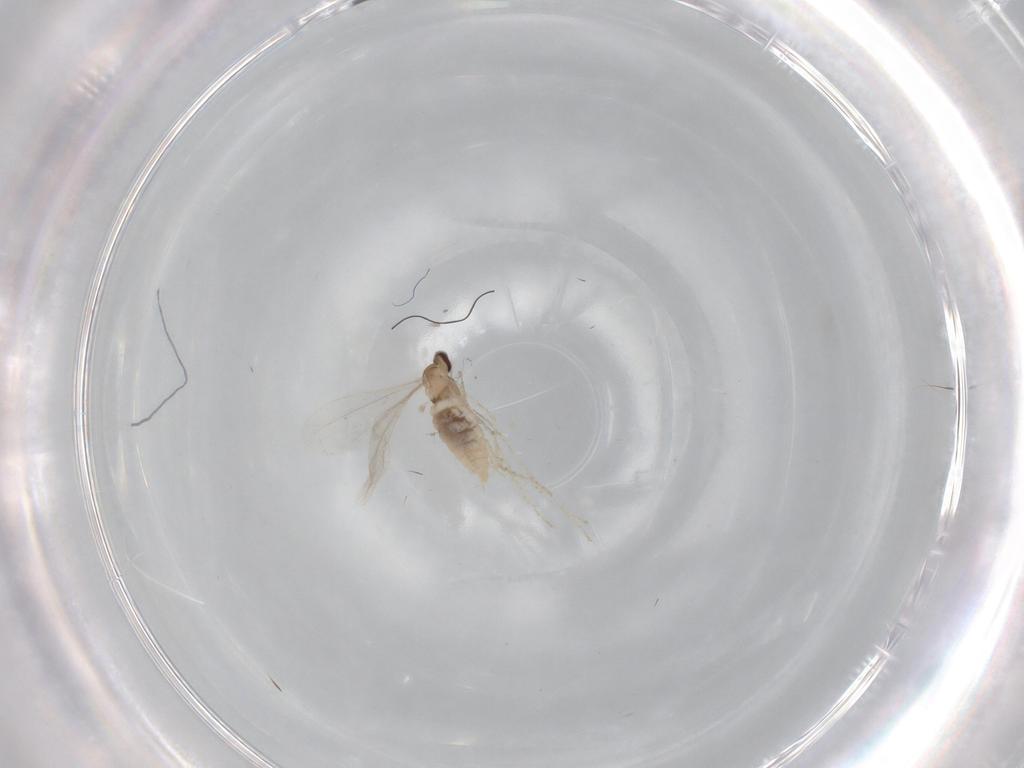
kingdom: Animalia
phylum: Arthropoda
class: Insecta
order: Diptera
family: Cecidomyiidae
